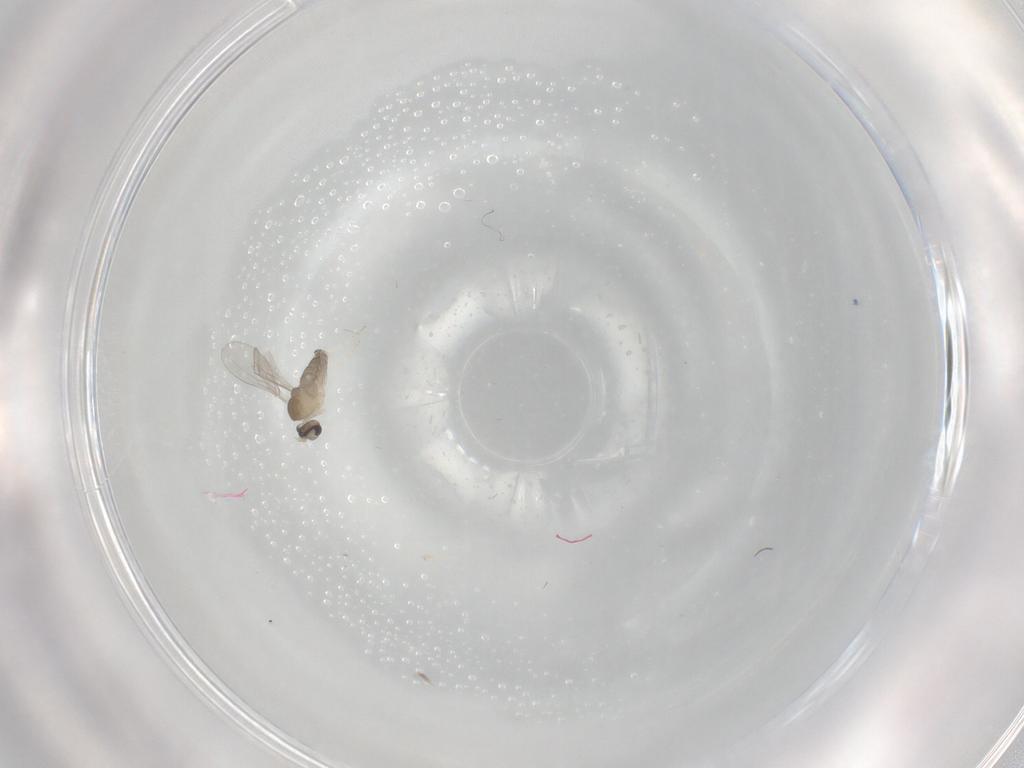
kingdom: Animalia
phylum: Arthropoda
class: Insecta
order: Diptera
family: Cecidomyiidae
